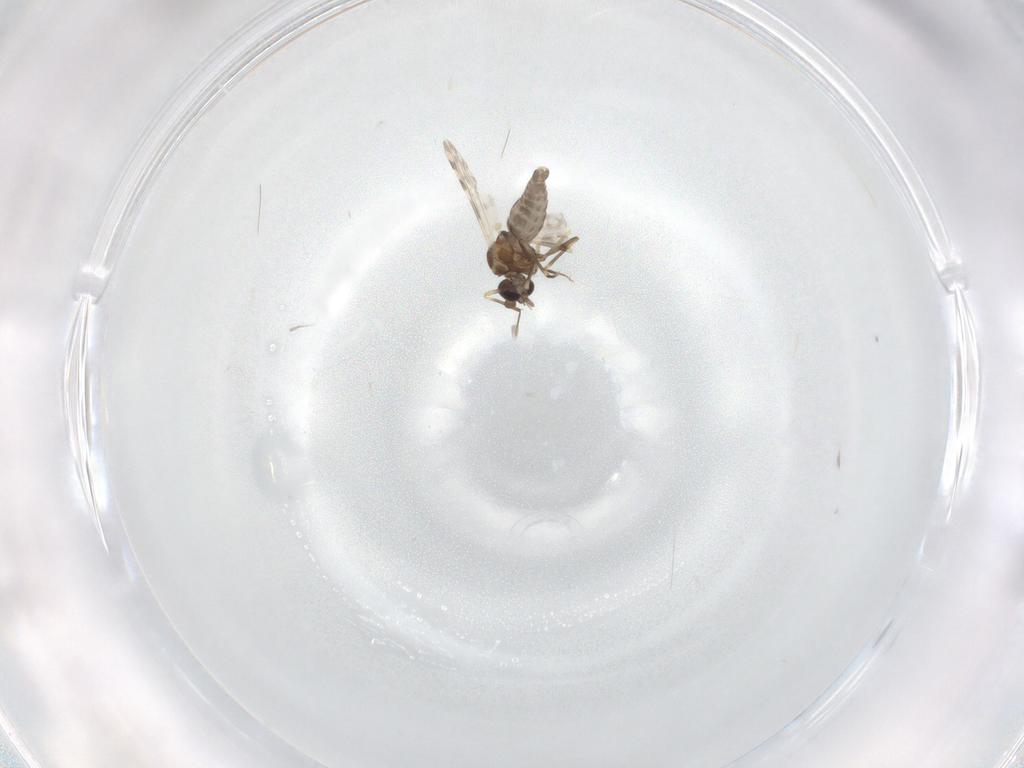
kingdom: Animalia
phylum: Arthropoda
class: Insecta
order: Diptera
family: Ceratopogonidae
